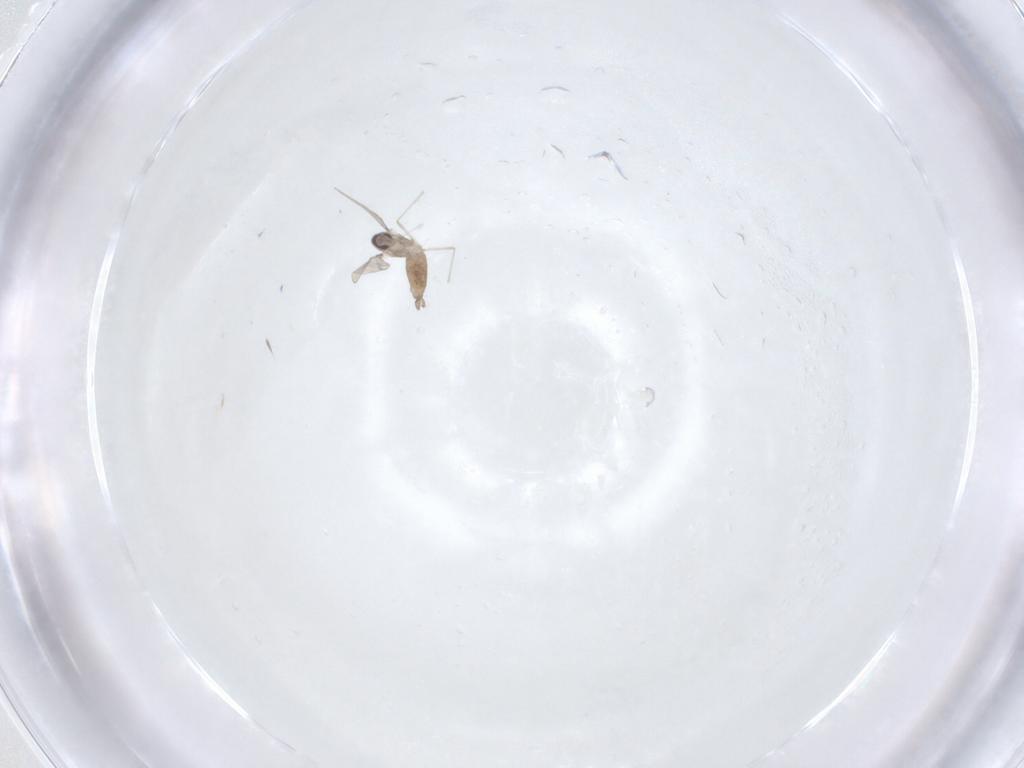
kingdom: Animalia
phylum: Arthropoda
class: Insecta
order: Diptera
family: Cecidomyiidae
